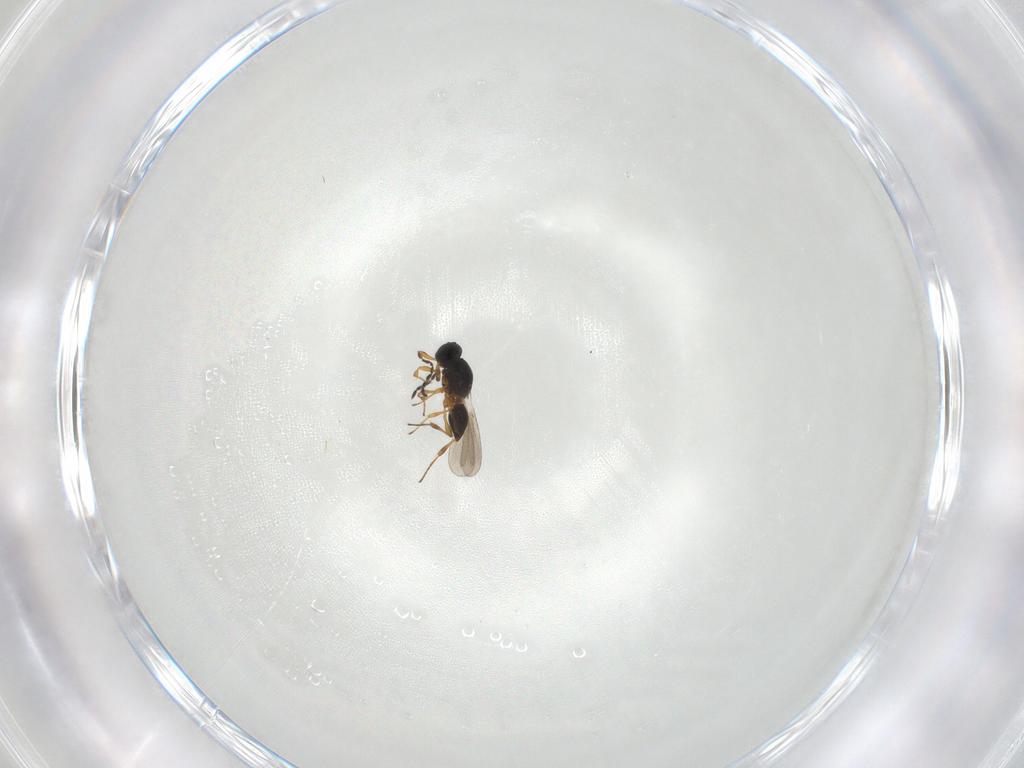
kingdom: Animalia
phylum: Arthropoda
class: Insecta
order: Hymenoptera
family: Platygastridae
